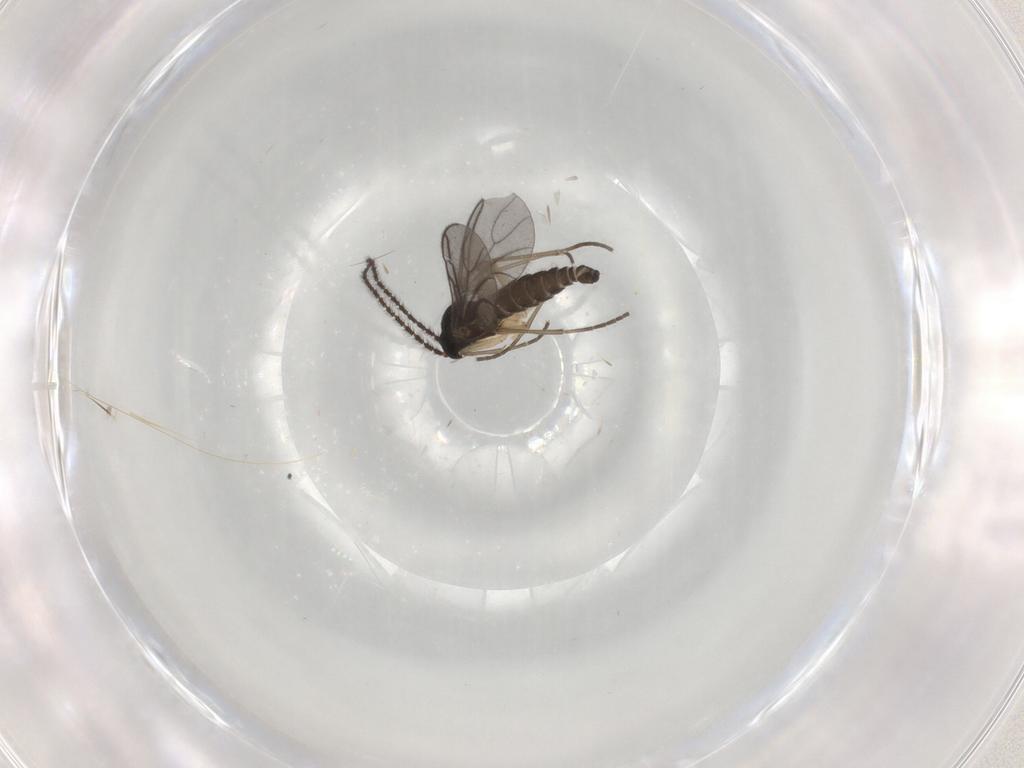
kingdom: Animalia
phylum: Arthropoda
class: Insecta
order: Diptera
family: Sciaridae
